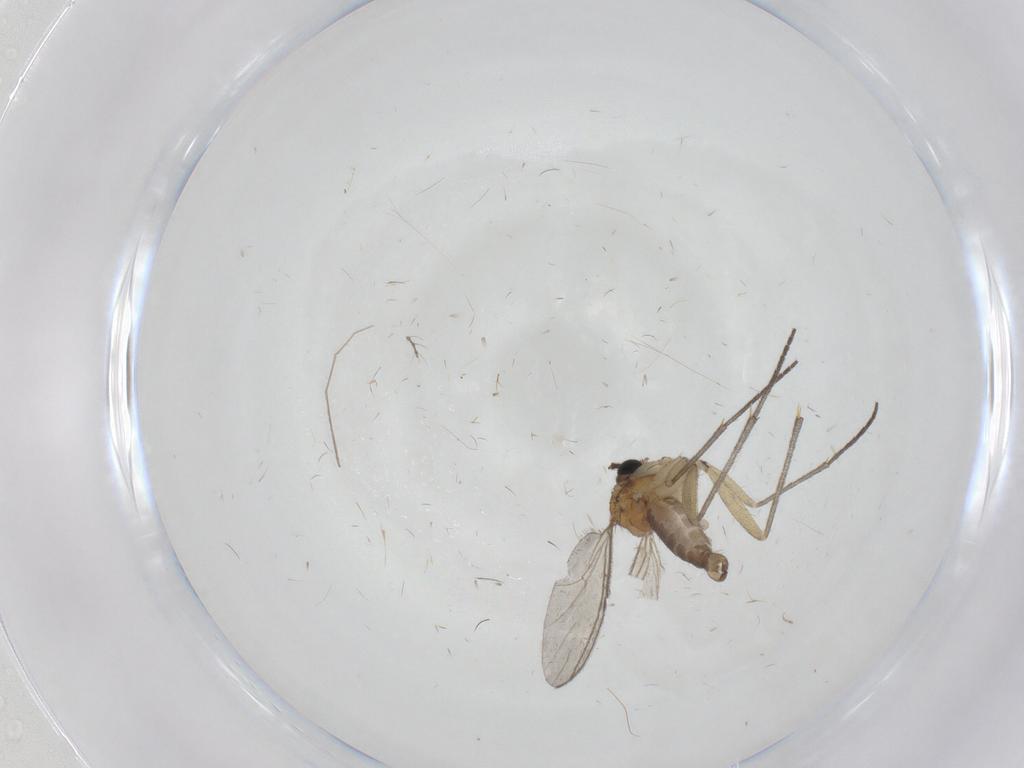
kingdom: Animalia
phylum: Arthropoda
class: Insecta
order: Diptera
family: Sciaridae
